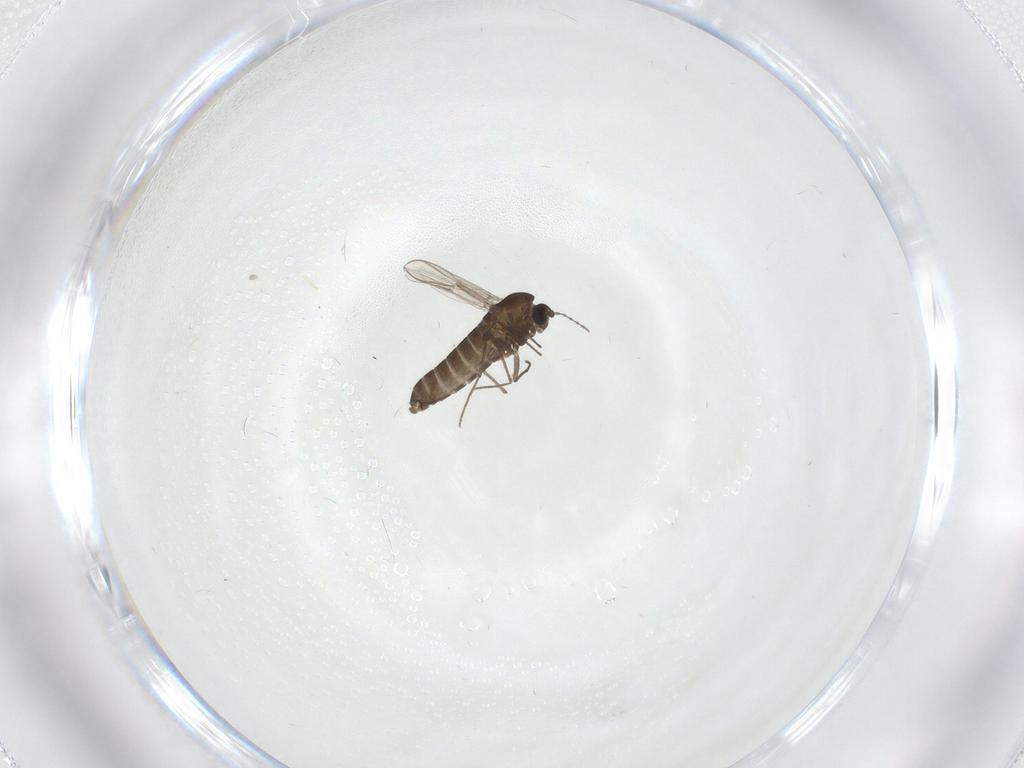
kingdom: Animalia
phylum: Arthropoda
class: Insecta
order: Diptera
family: Chironomidae
